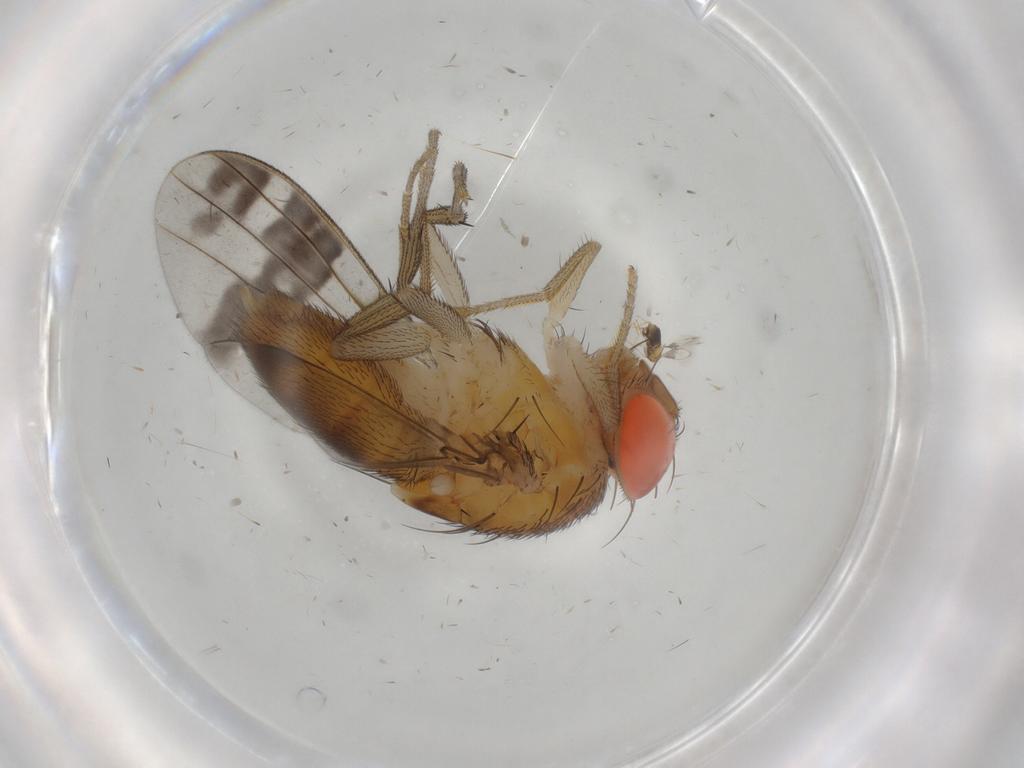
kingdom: Animalia
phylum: Arthropoda
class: Insecta
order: Diptera
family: Drosophilidae
